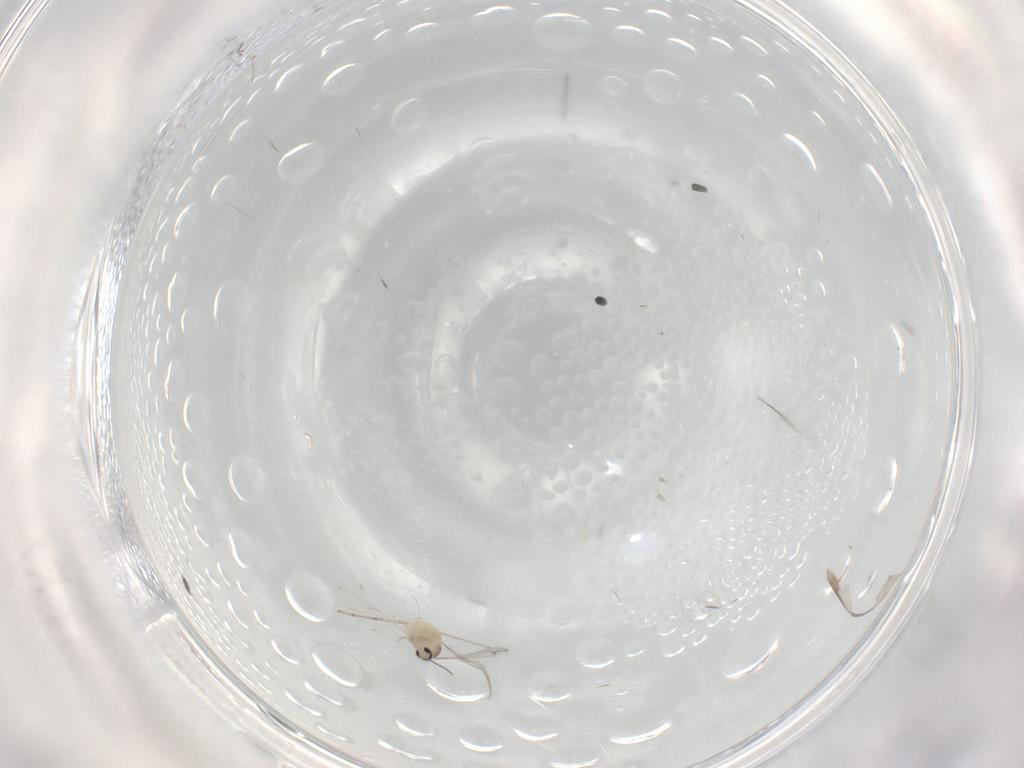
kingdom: Animalia
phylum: Arthropoda
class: Insecta
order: Diptera
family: Cecidomyiidae
